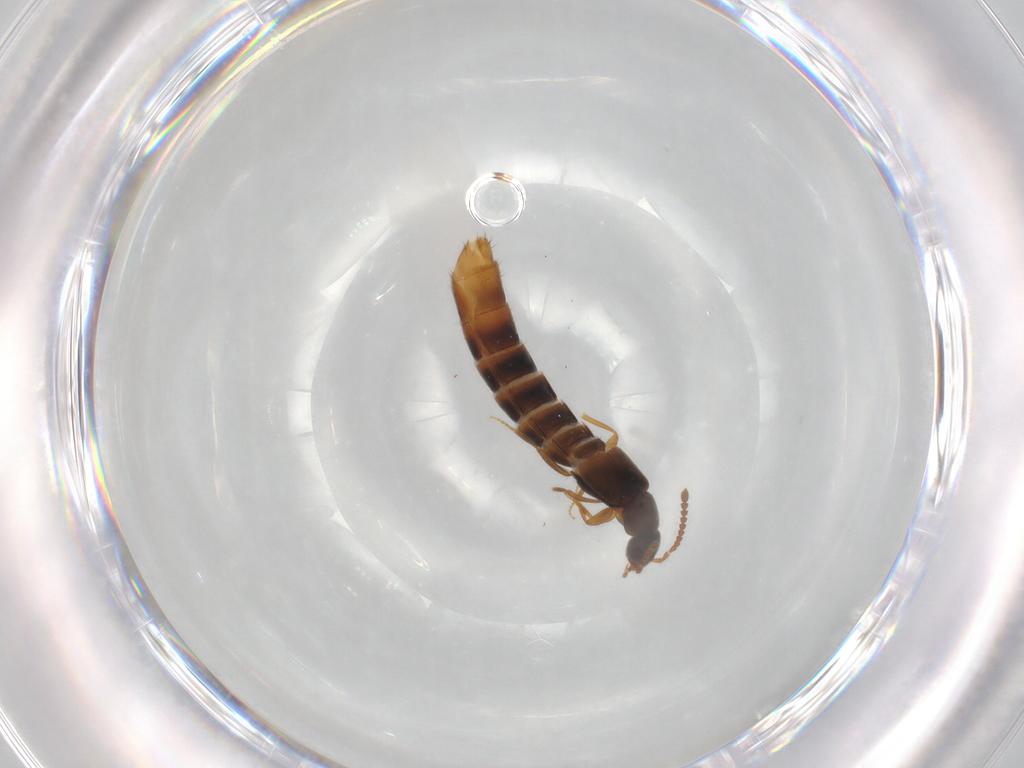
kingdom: Animalia
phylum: Arthropoda
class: Insecta
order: Coleoptera
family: Staphylinidae
